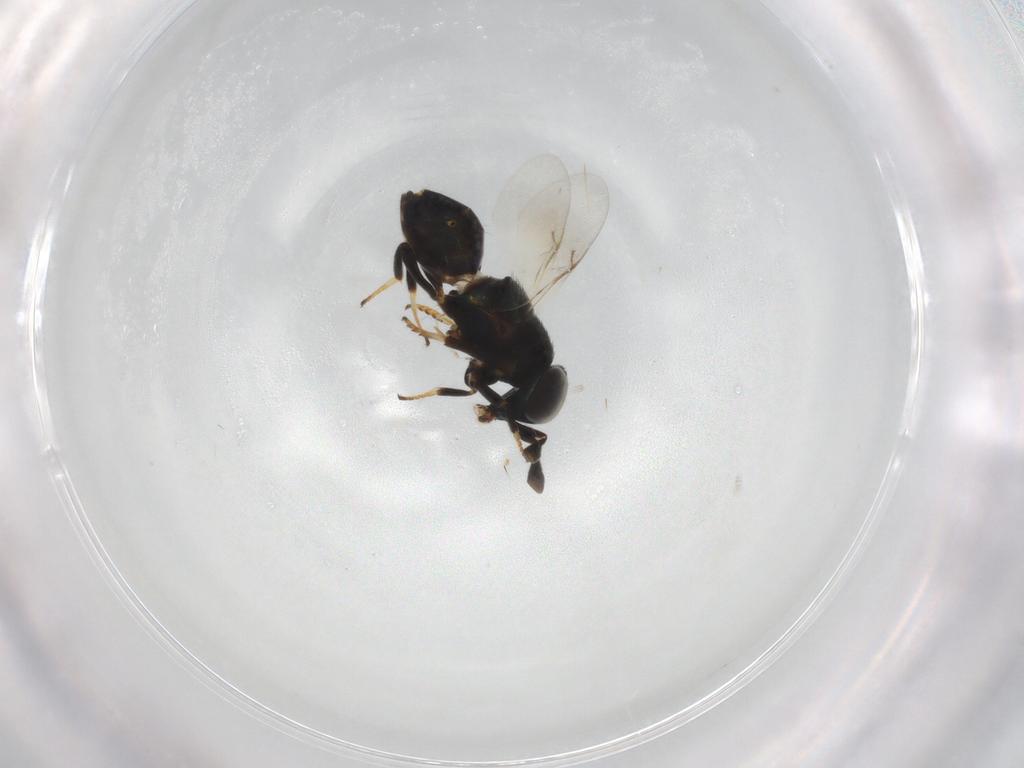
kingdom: Animalia
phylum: Arthropoda
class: Insecta
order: Hymenoptera
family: Encyrtidae
